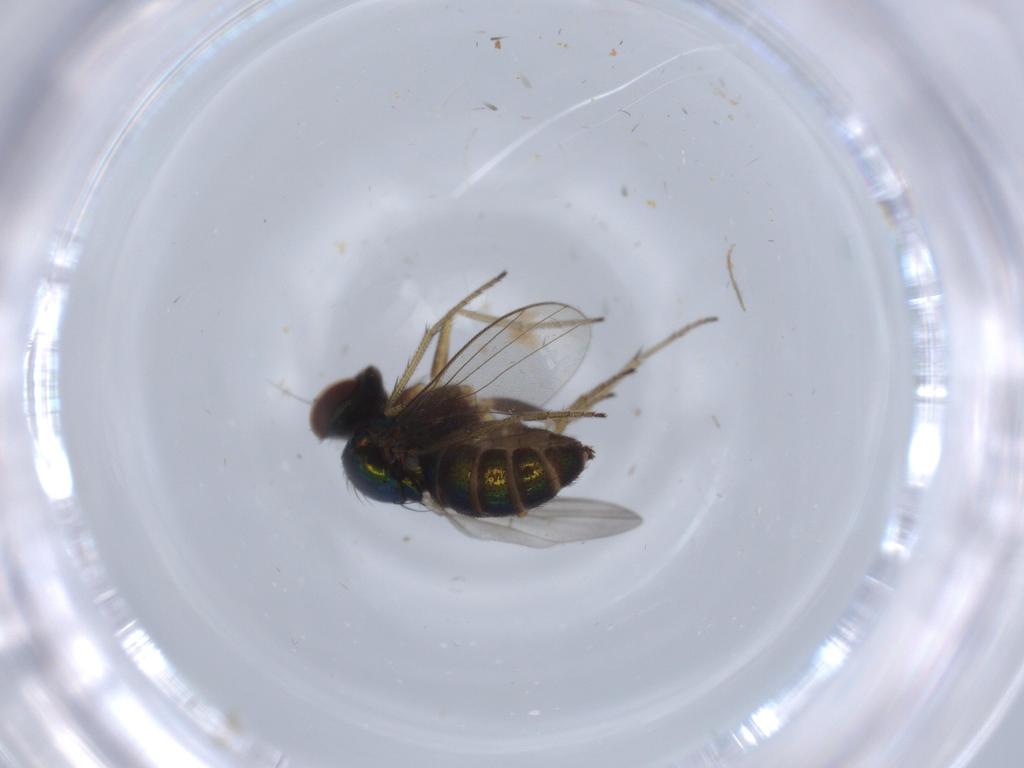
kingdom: Animalia
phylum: Arthropoda
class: Insecta
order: Diptera
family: Dolichopodidae
